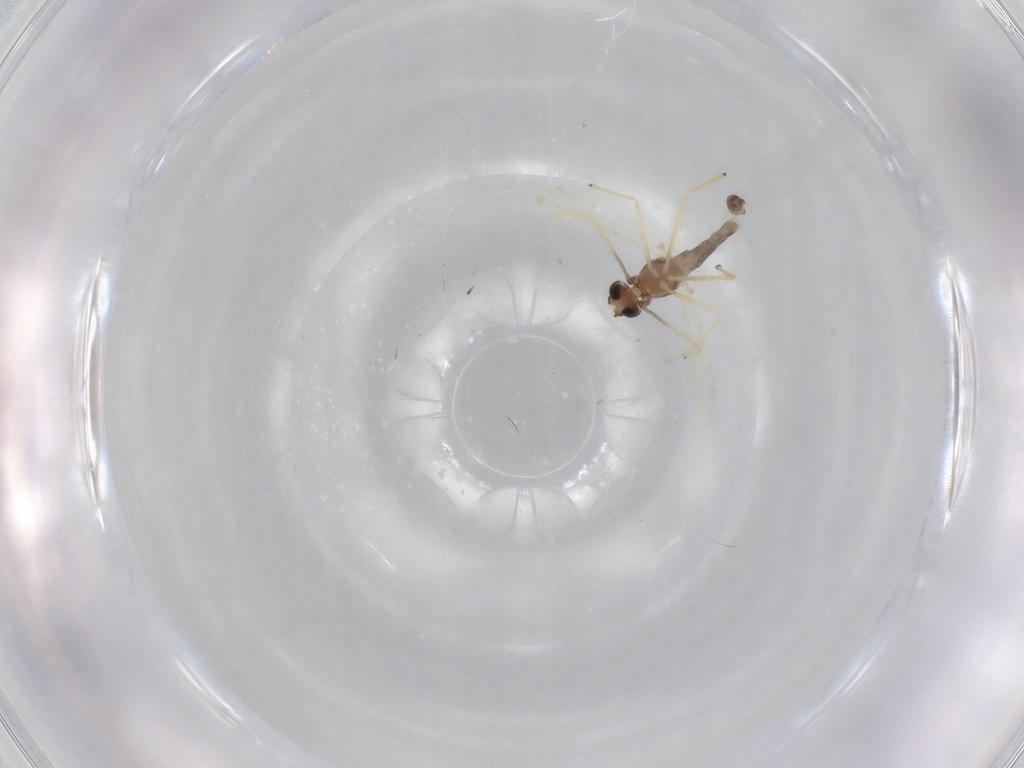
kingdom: Animalia
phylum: Arthropoda
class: Insecta
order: Diptera
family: Chironomidae
